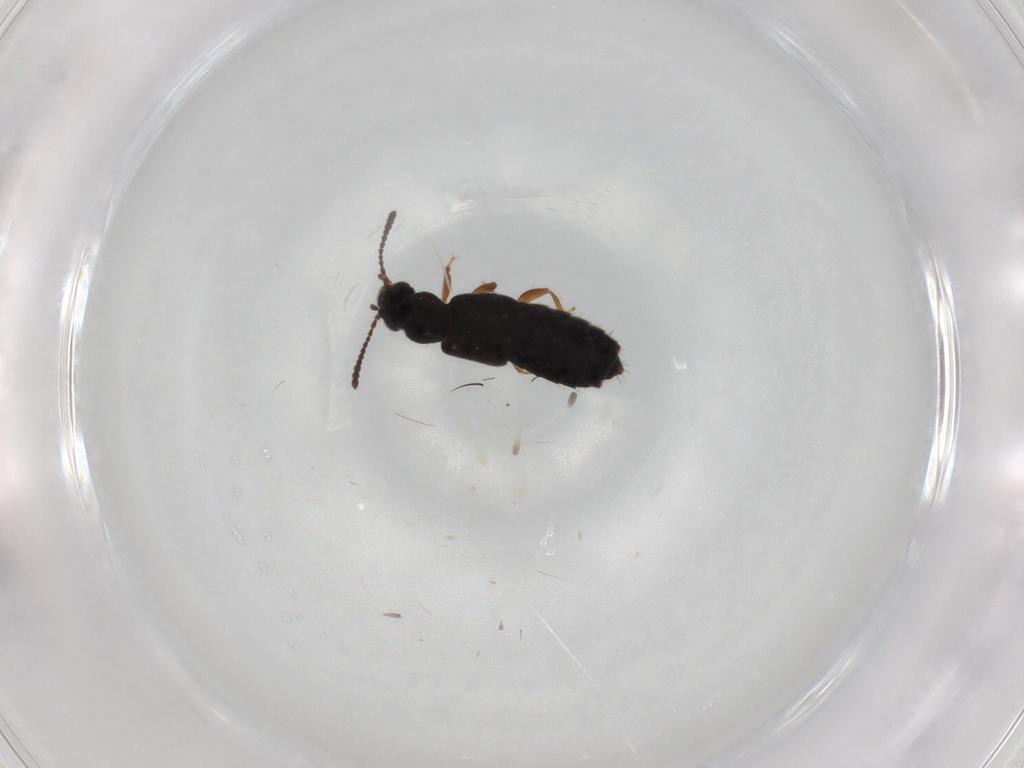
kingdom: Animalia
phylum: Arthropoda
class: Insecta
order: Coleoptera
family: Staphylinidae
